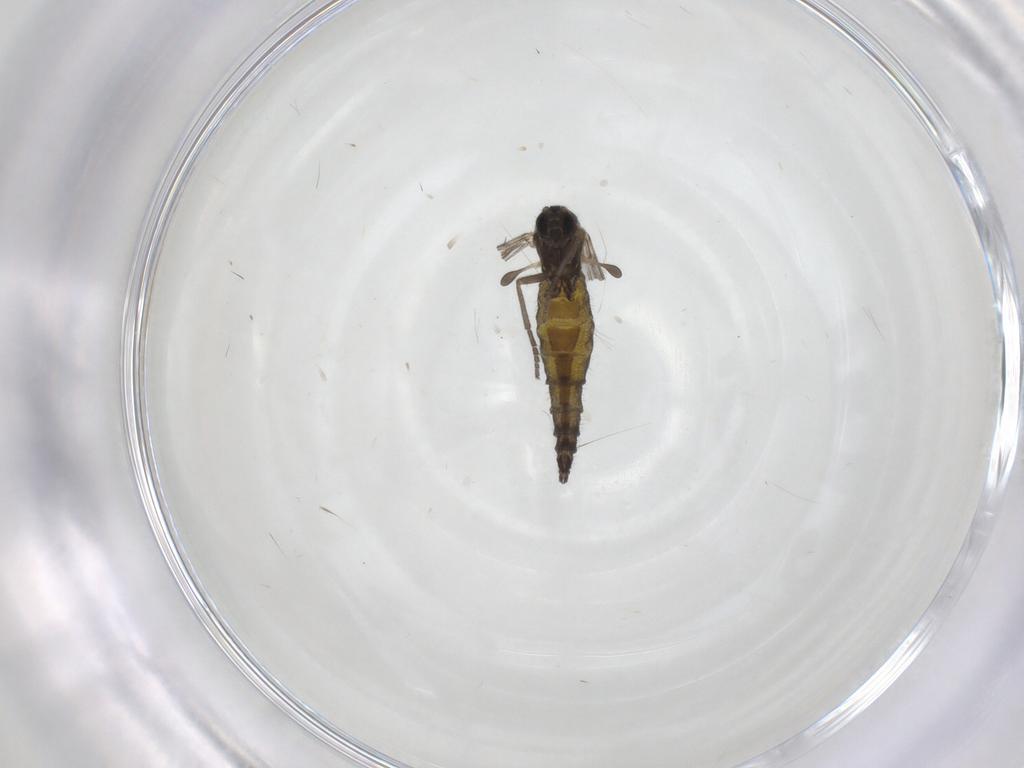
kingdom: Animalia
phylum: Arthropoda
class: Insecta
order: Diptera
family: Sciaridae
